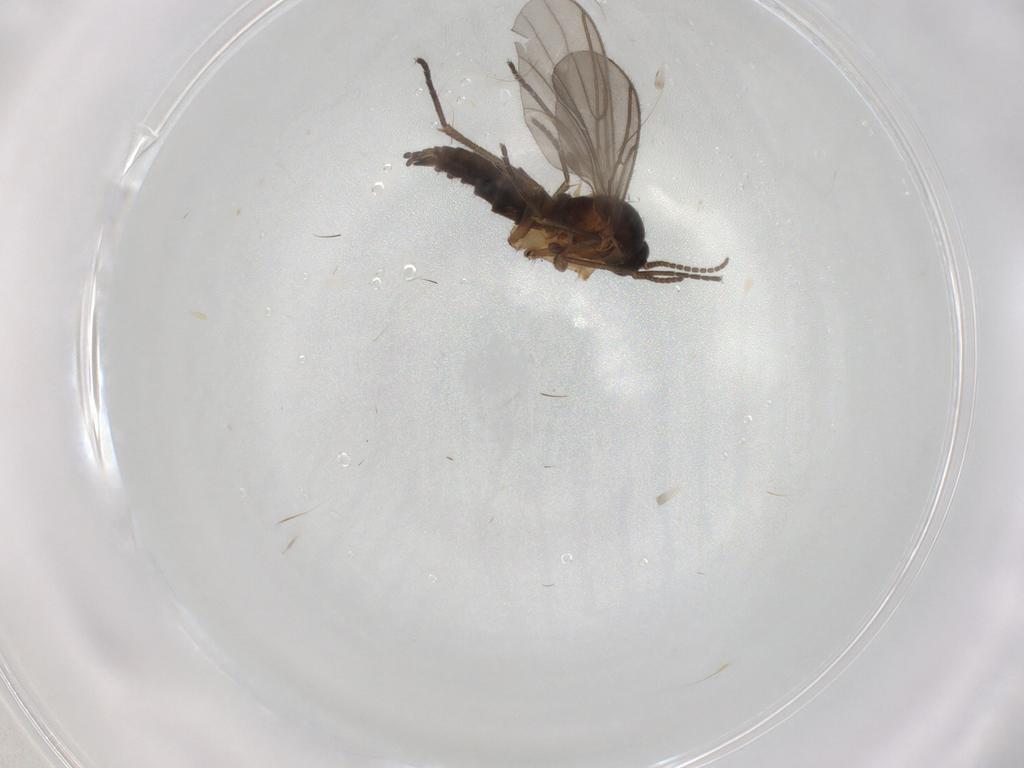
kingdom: Animalia
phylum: Arthropoda
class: Insecta
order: Diptera
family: Sciaridae
